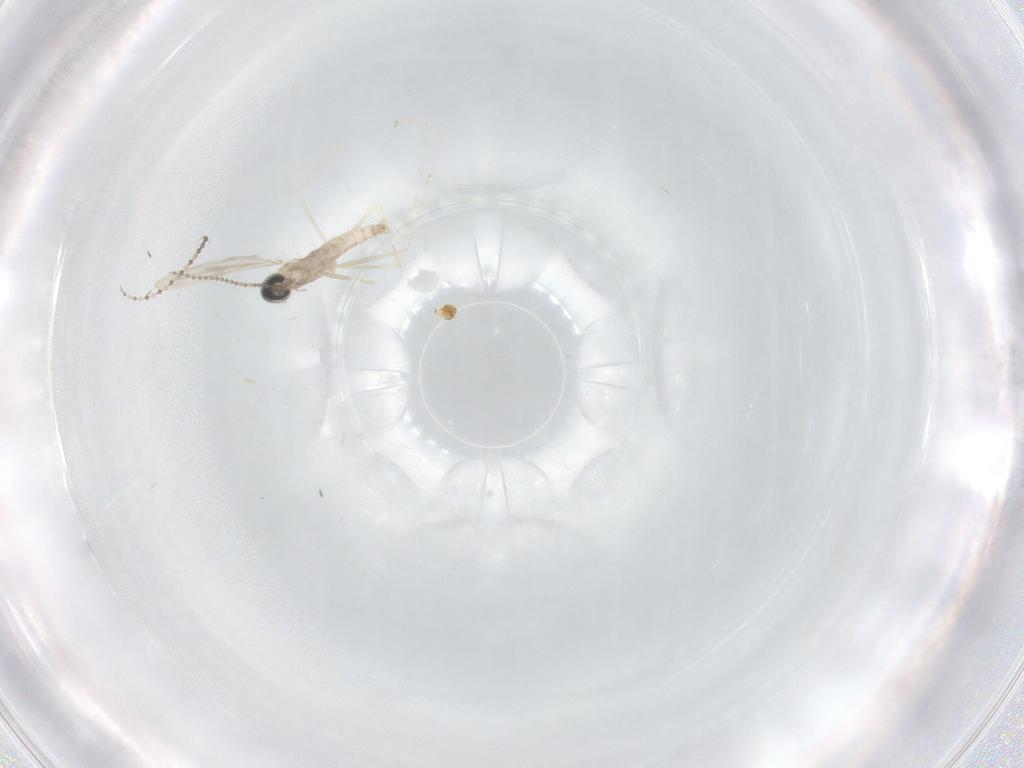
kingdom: Animalia
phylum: Arthropoda
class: Insecta
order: Diptera
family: Cecidomyiidae
